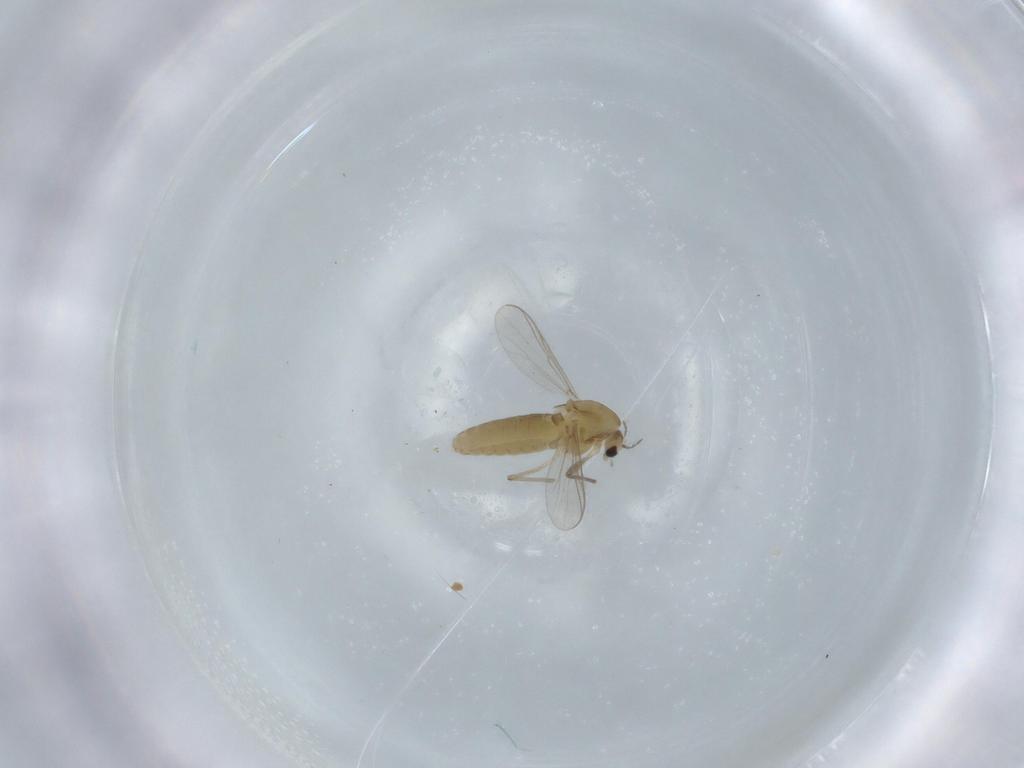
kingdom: Animalia
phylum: Arthropoda
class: Insecta
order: Diptera
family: Chironomidae
